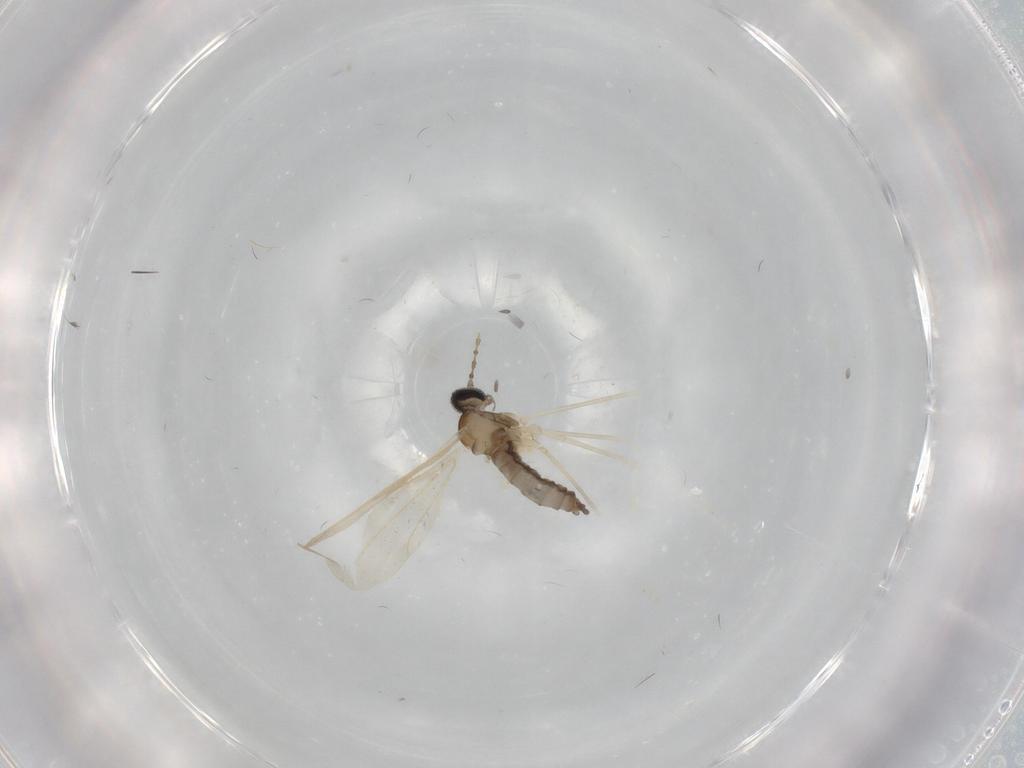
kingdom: Animalia
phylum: Arthropoda
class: Insecta
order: Diptera
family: Cecidomyiidae
